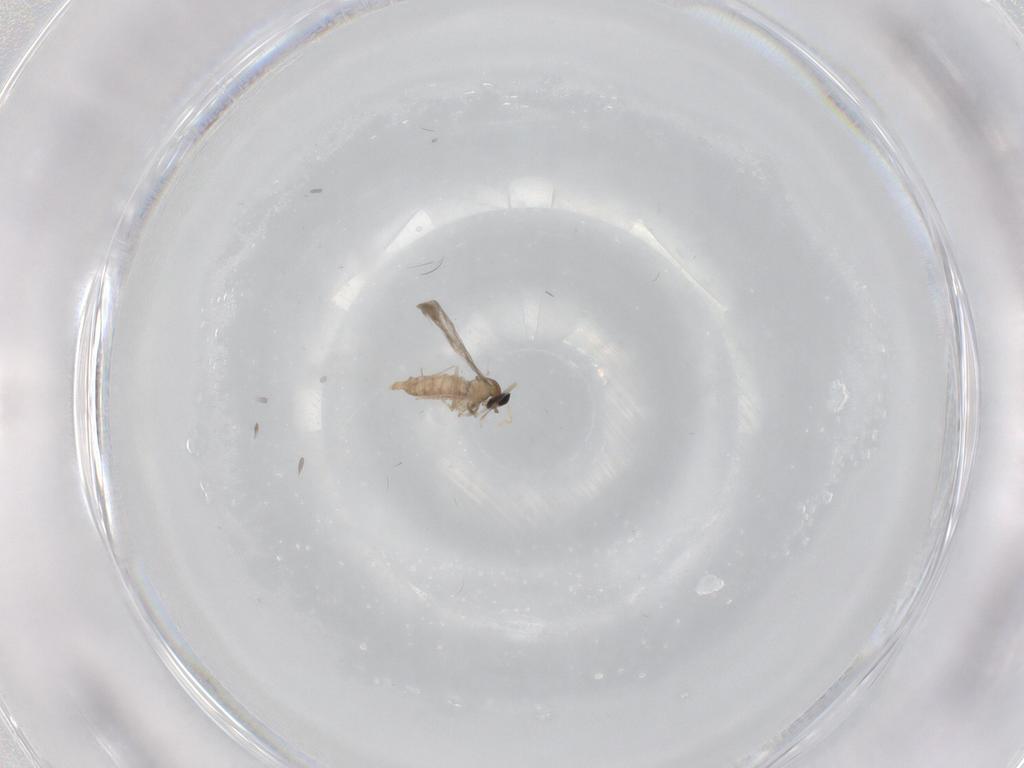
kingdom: Animalia
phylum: Arthropoda
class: Insecta
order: Diptera
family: Cecidomyiidae
